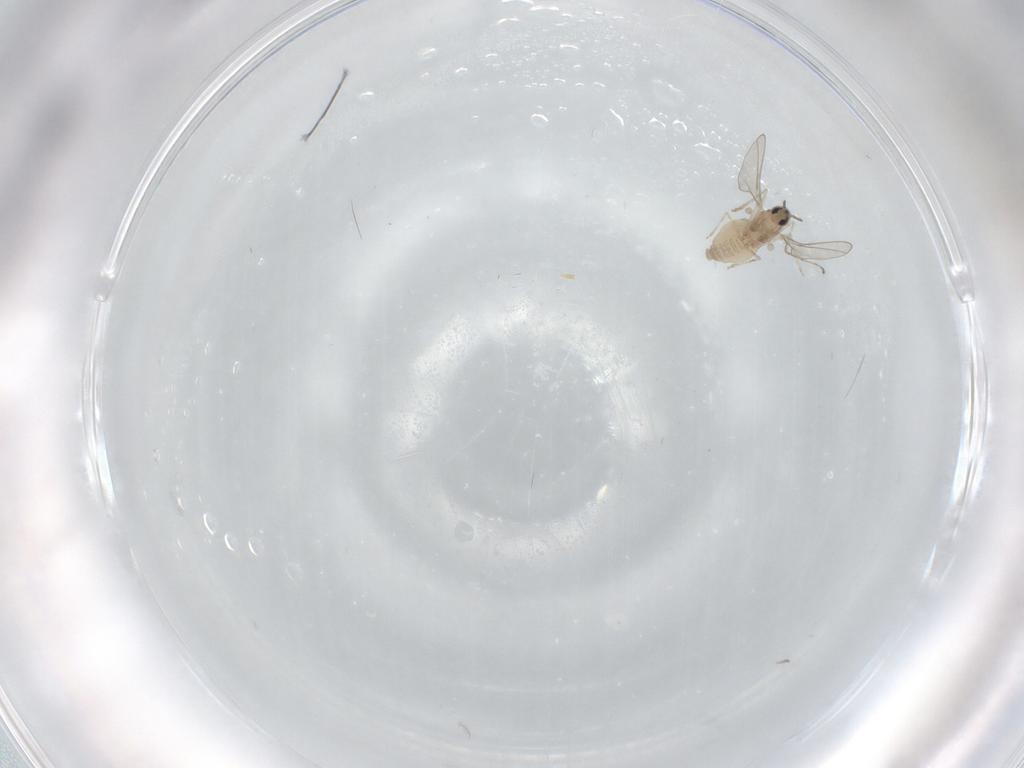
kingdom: Animalia
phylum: Arthropoda
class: Insecta
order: Diptera
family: Cecidomyiidae
